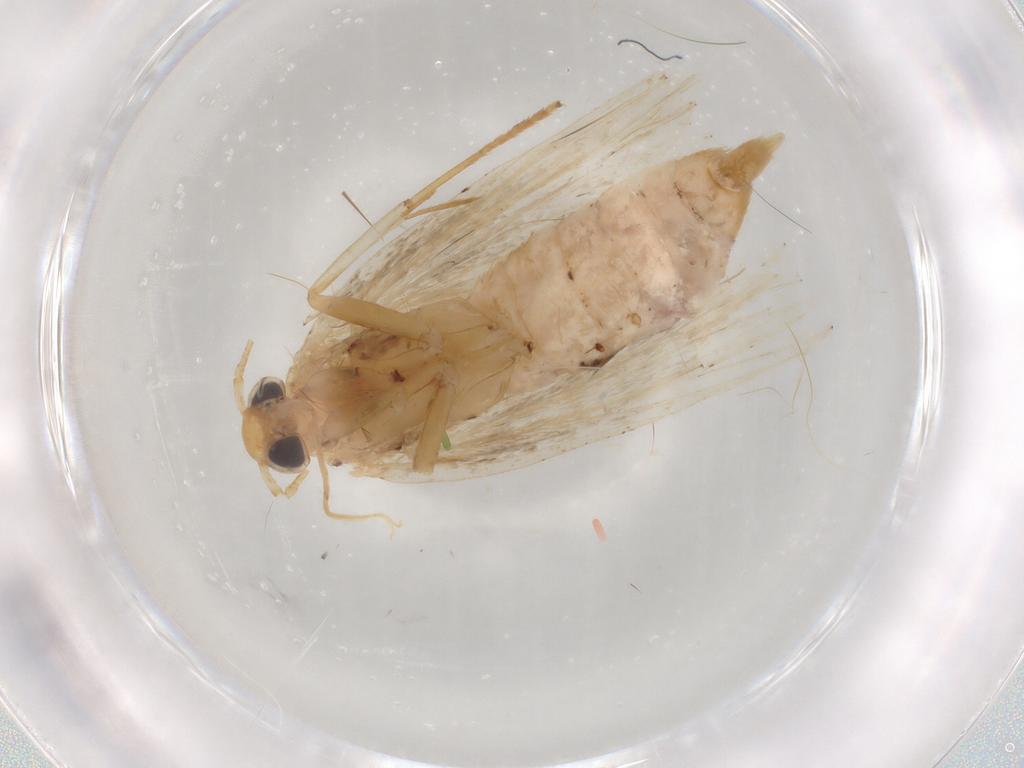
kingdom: Animalia
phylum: Arthropoda
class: Insecta
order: Lepidoptera
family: Depressariidae
